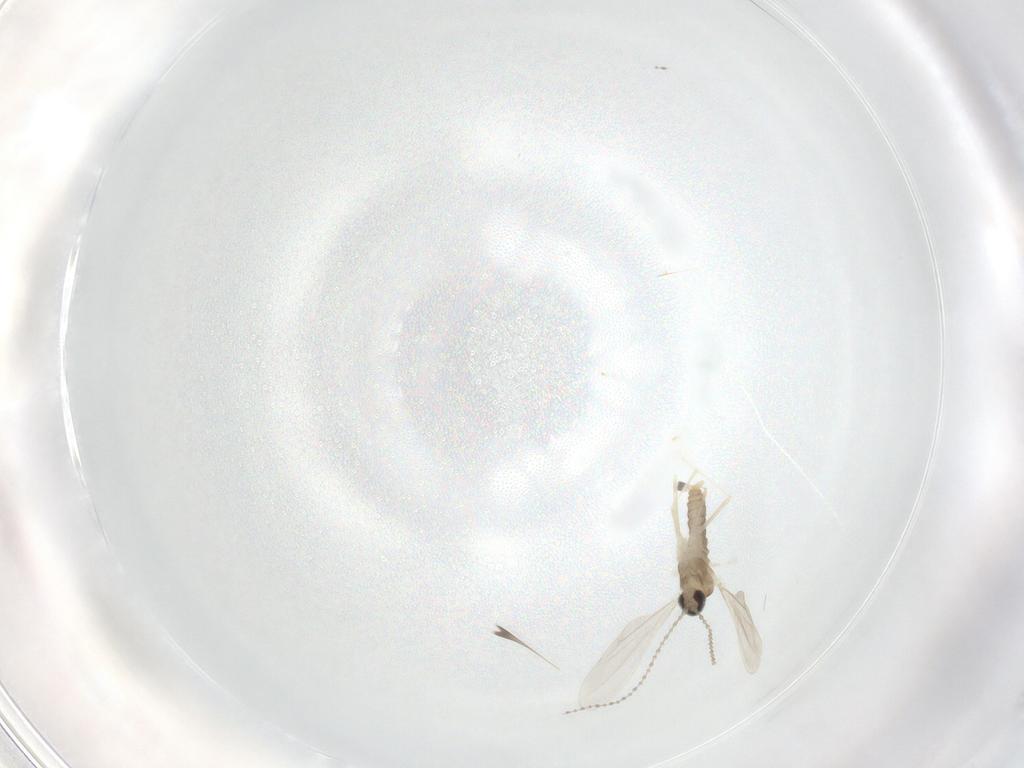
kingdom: Animalia
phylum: Arthropoda
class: Insecta
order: Diptera
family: Cecidomyiidae
